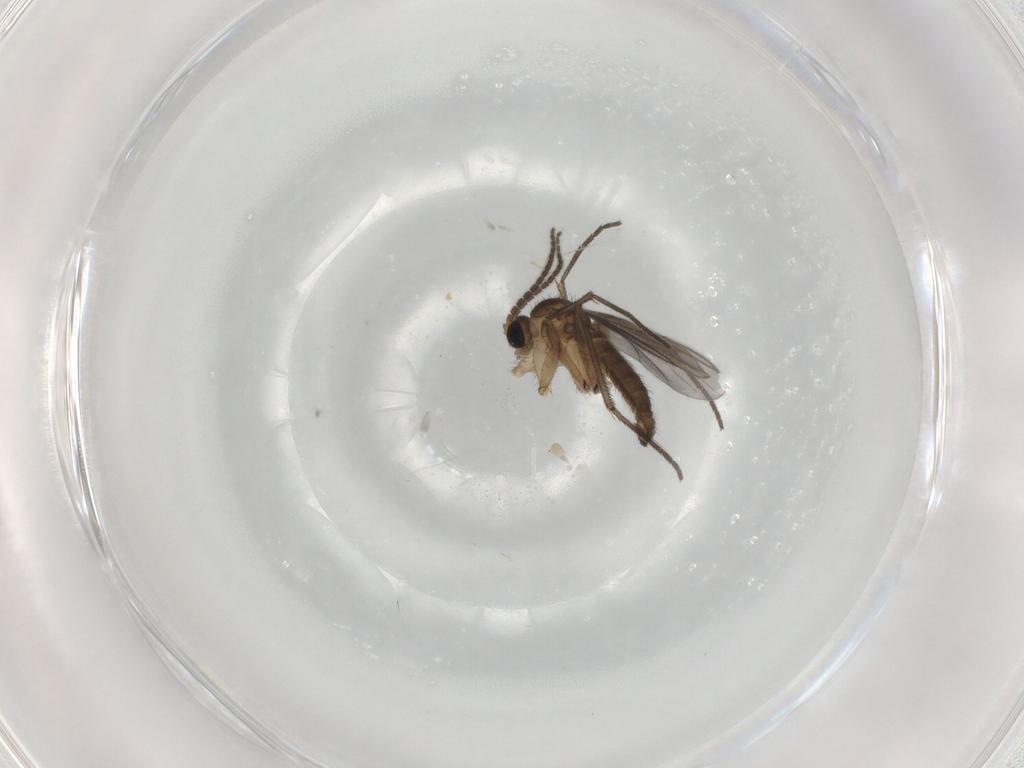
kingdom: Animalia
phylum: Arthropoda
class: Insecta
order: Diptera
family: Sciaridae
